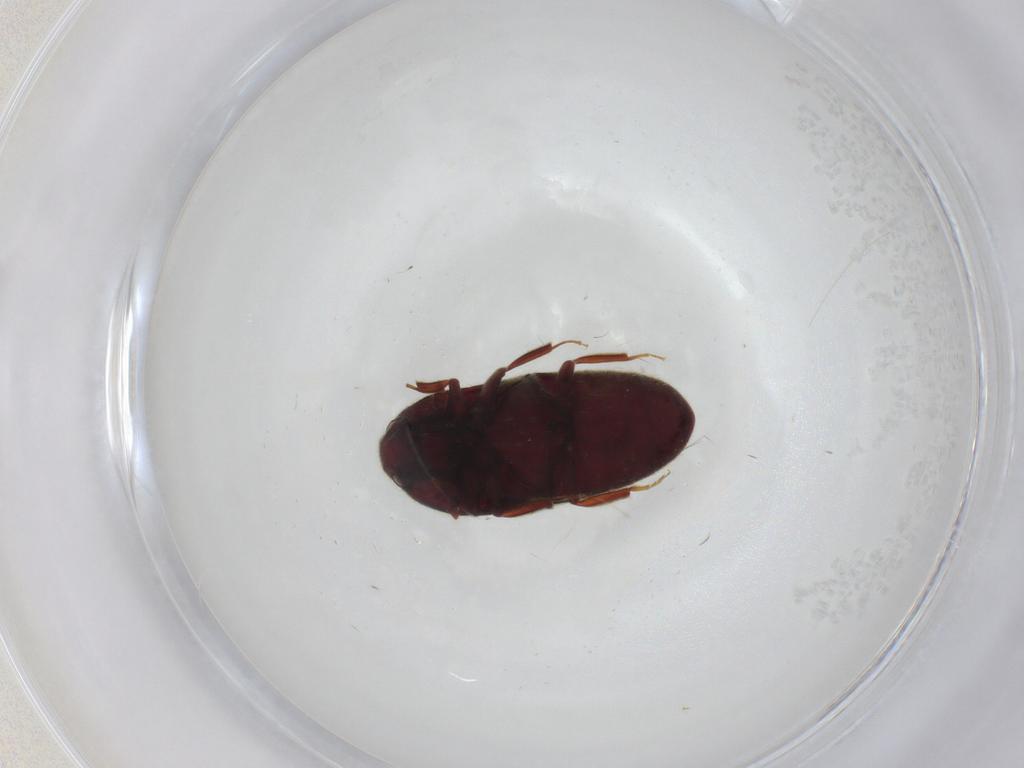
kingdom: Animalia
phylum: Arthropoda
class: Insecta
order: Coleoptera
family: Throscidae
